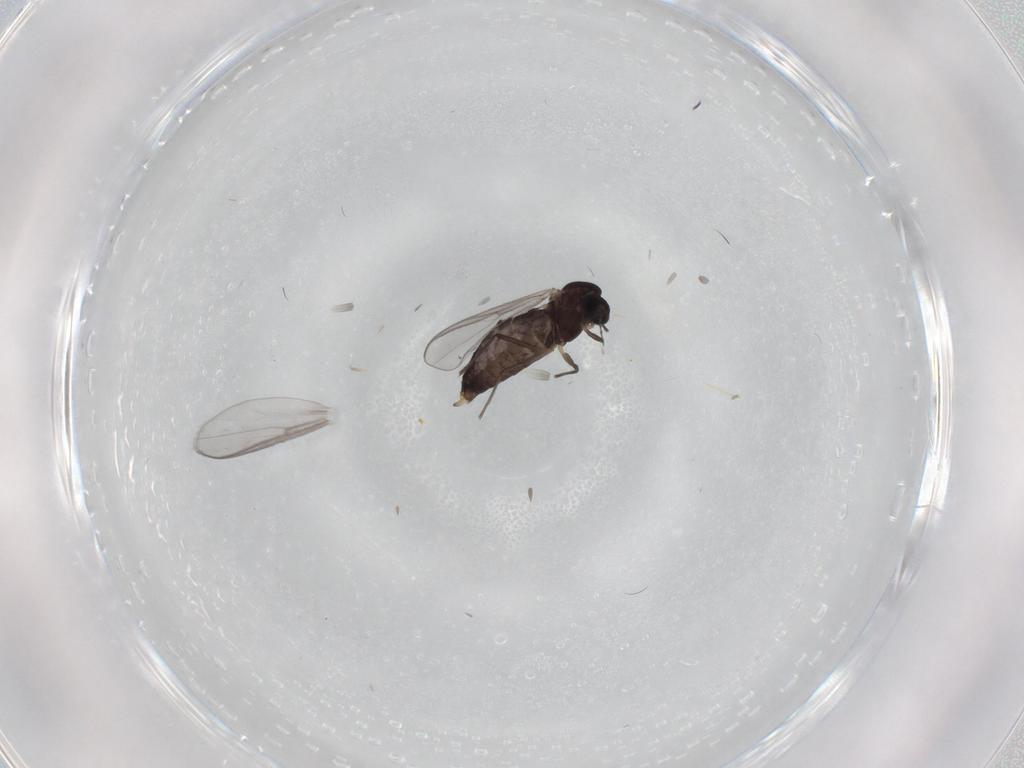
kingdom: Animalia
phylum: Arthropoda
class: Insecta
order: Diptera
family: Chironomidae
